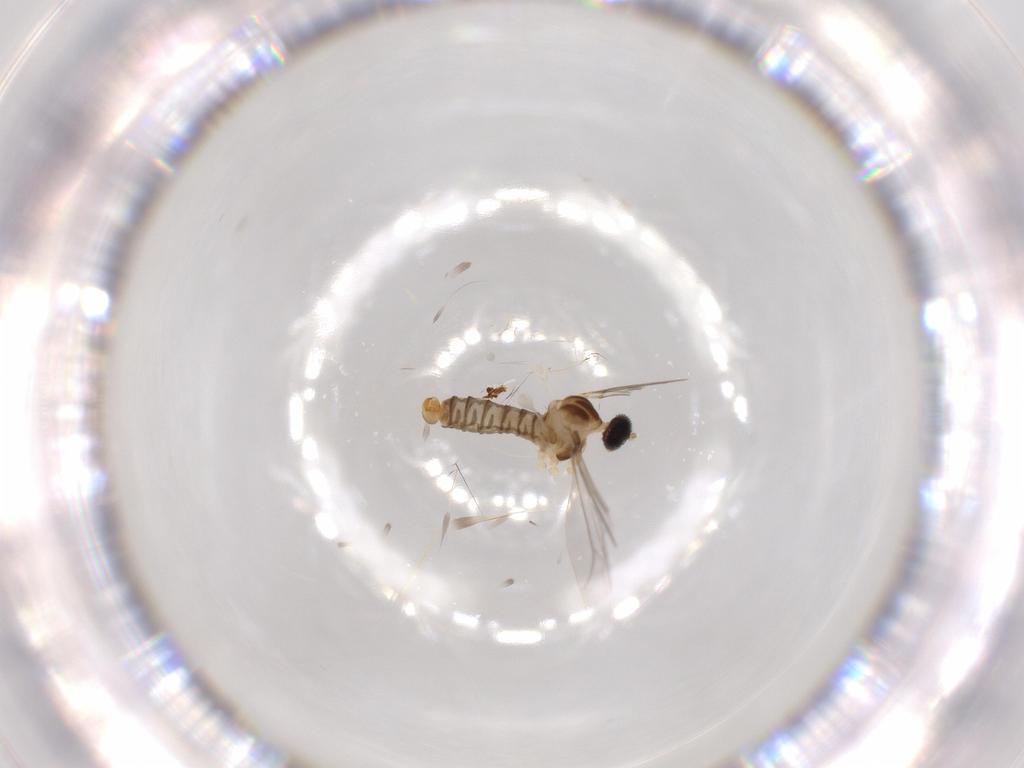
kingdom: Animalia
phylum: Arthropoda
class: Insecta
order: Diptera
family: Cecidomyiidae
